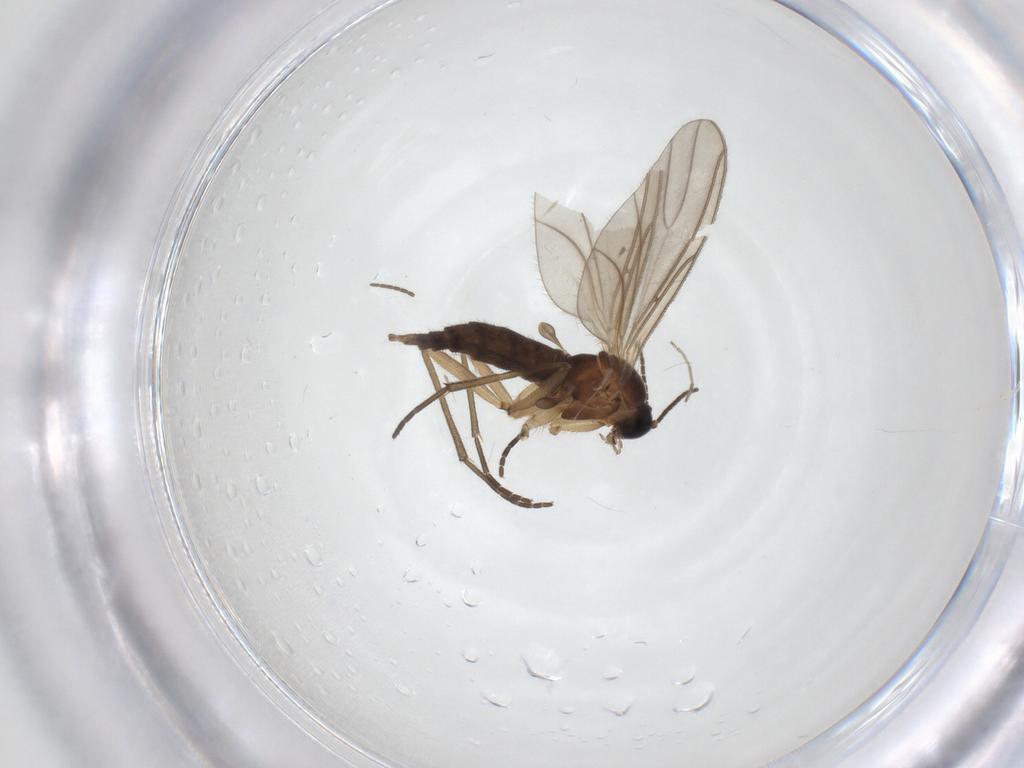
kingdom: Animalia
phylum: Arthropoda
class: Insecta
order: Diptera
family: Sciaridae
